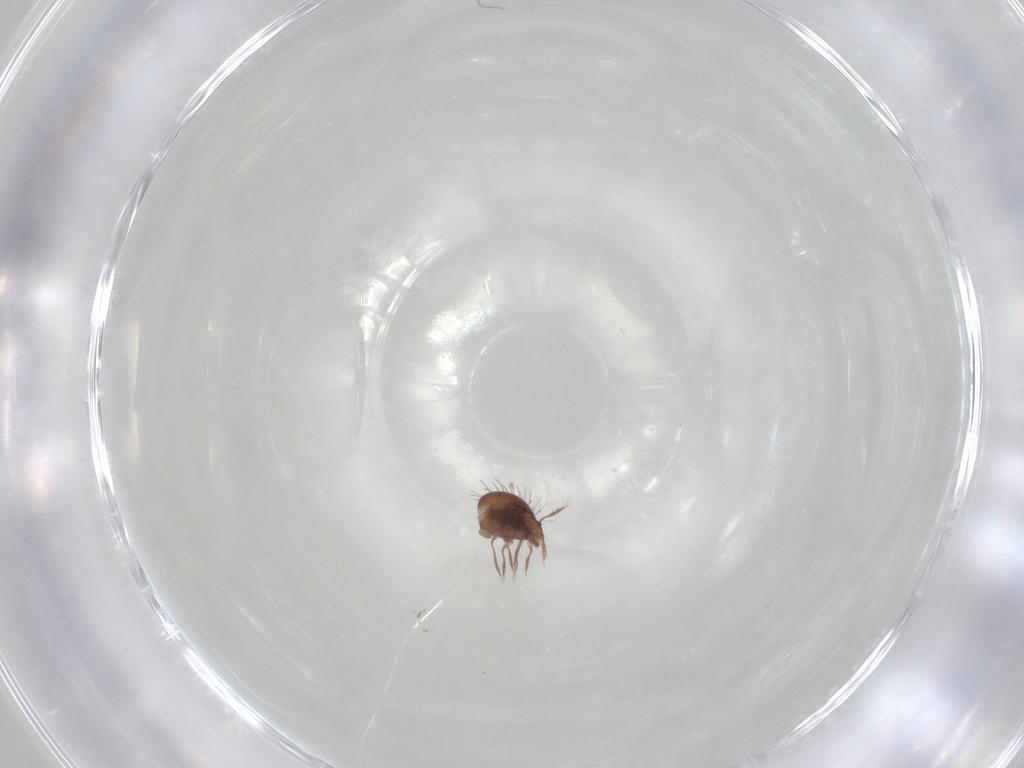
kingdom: Animalia
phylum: Arthropoda
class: Arachnida
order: Sarcoptiformes
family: Caloppiidae
